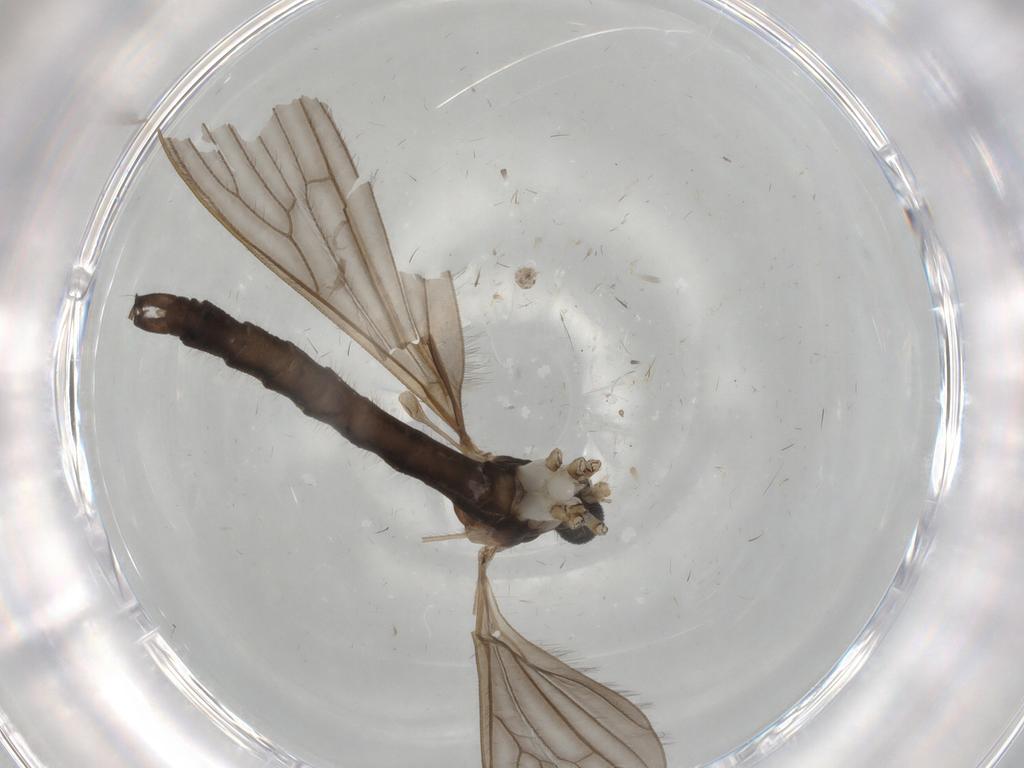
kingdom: Animalia
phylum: Arthropoda
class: Insecta
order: Diptera
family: Drosophilidae
